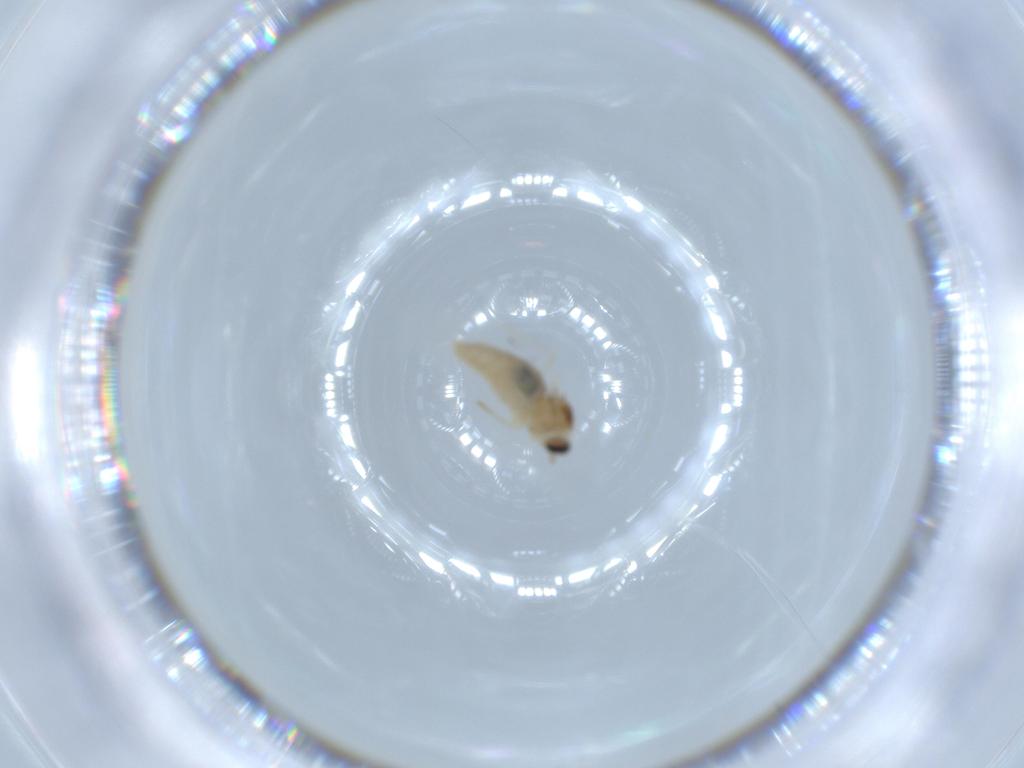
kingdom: Animalia
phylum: Arthropoda
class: Insecta
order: Diptera
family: Cecidomyiidae
